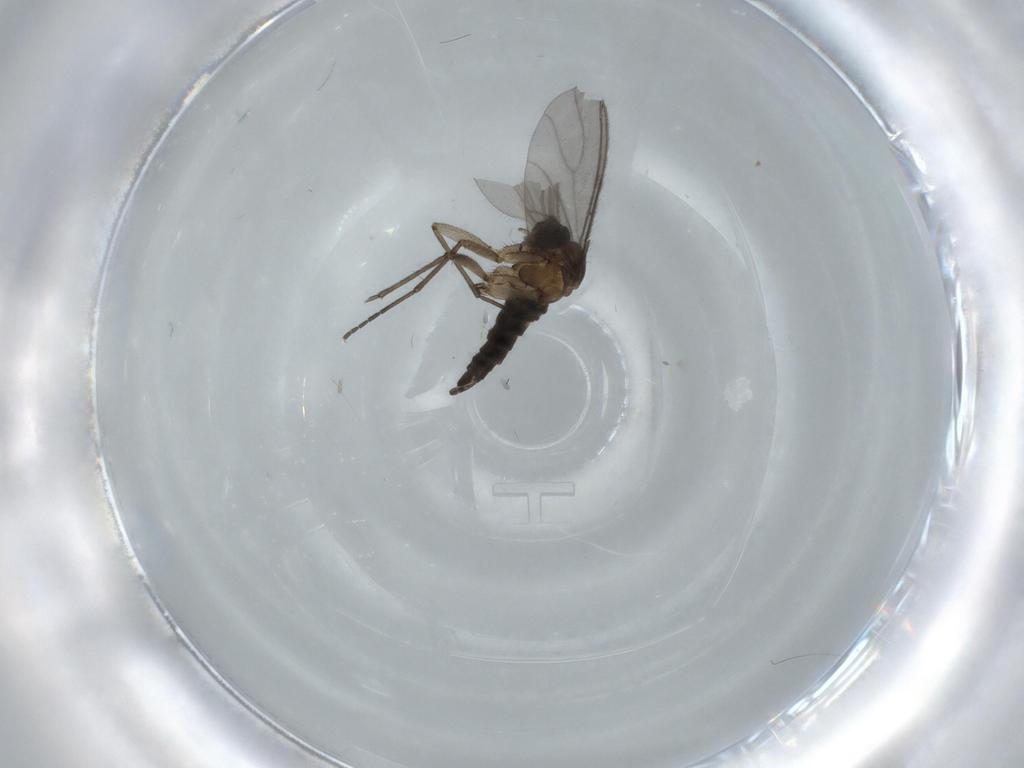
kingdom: Animalia
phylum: Arthropoda
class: Insecta
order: Diptera
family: Sciaridae
